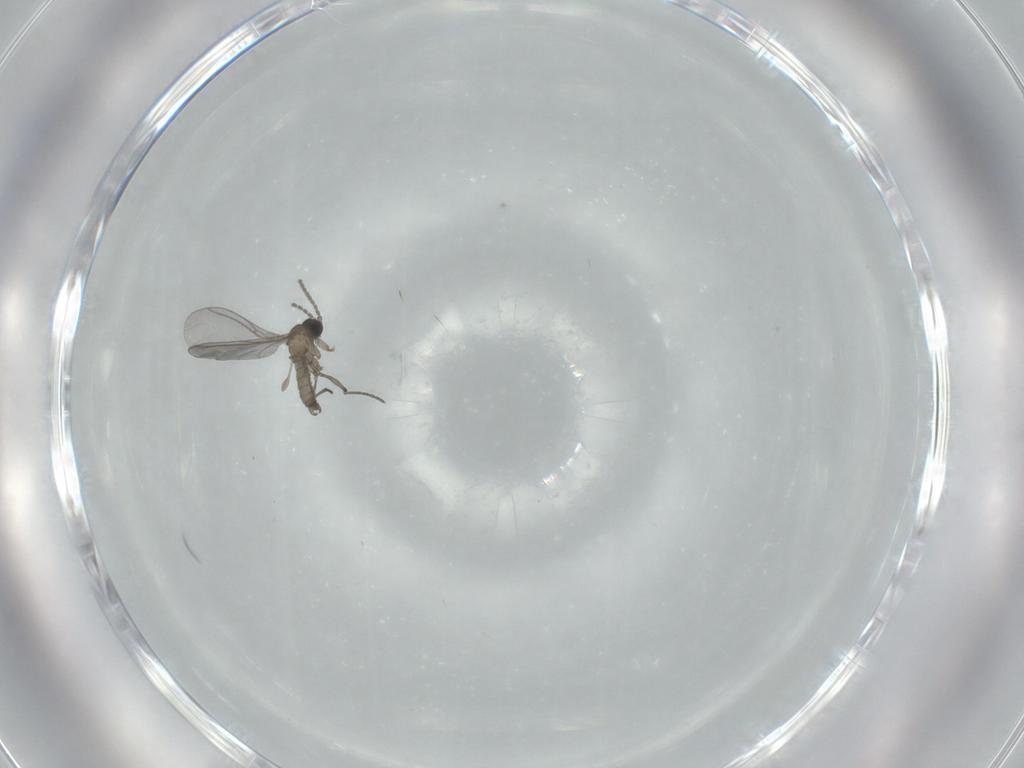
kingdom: Animalia
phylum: Arthropoda
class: Insecta
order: Diptera
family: Sciaridae
